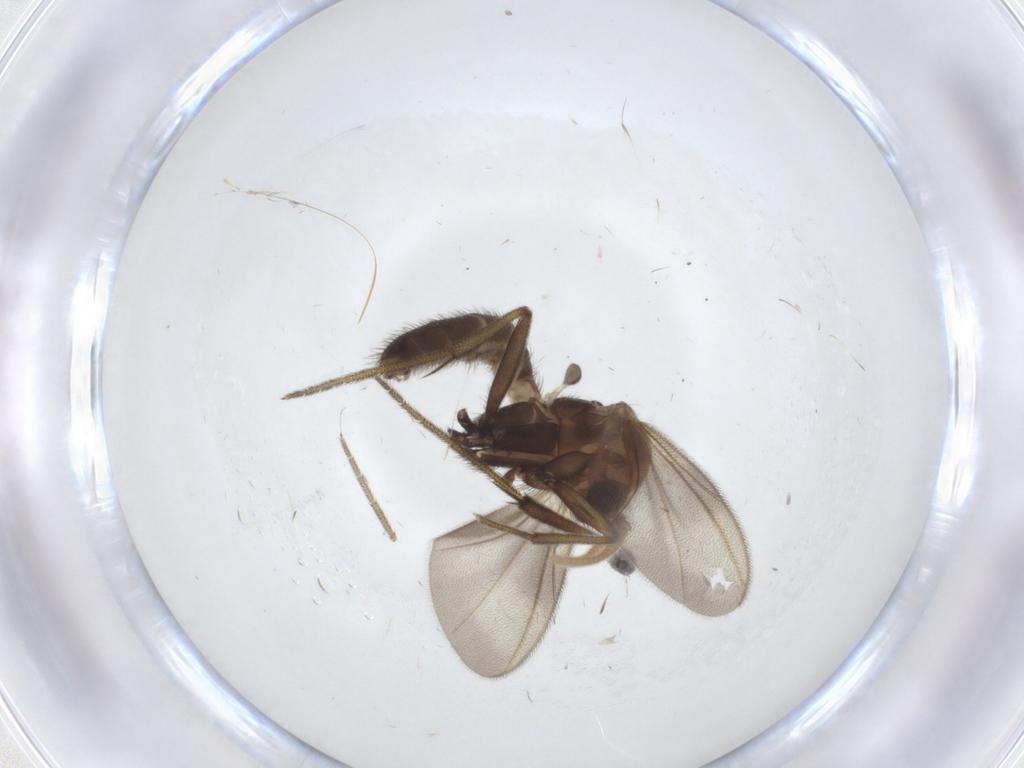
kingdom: Animalia
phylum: Arthropoda
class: Insecta
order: Diptera
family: Mycetophilidae
